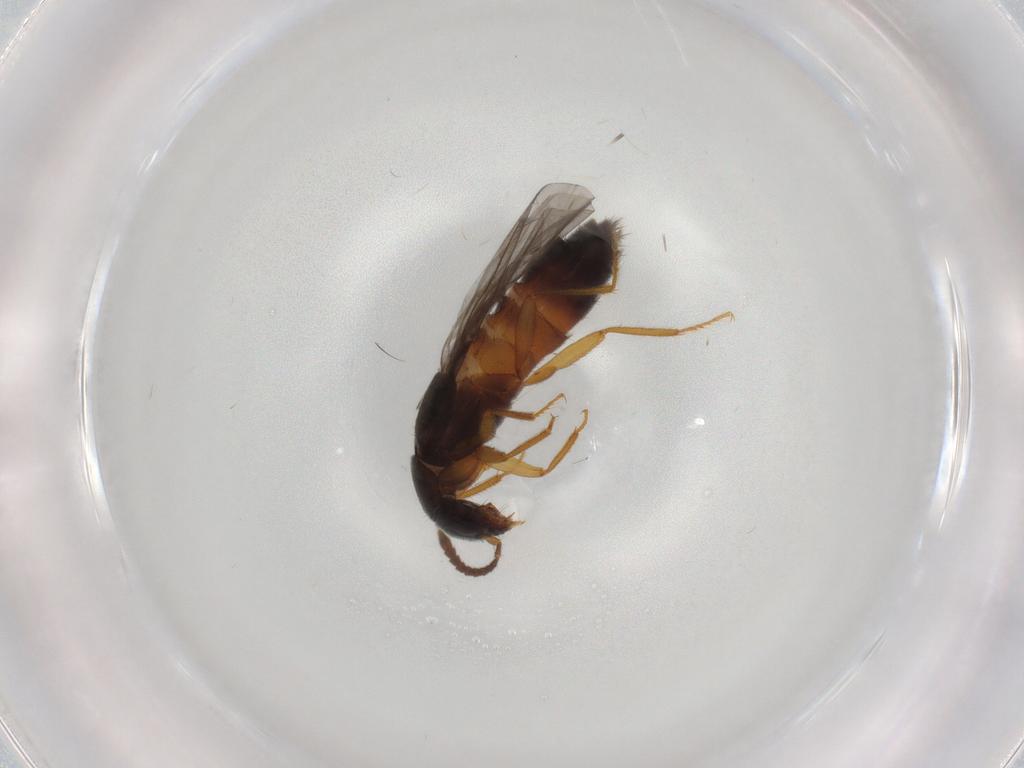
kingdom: Animalia
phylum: Arthropoda
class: Insecta
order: Coleoptera
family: Staphylinidae
